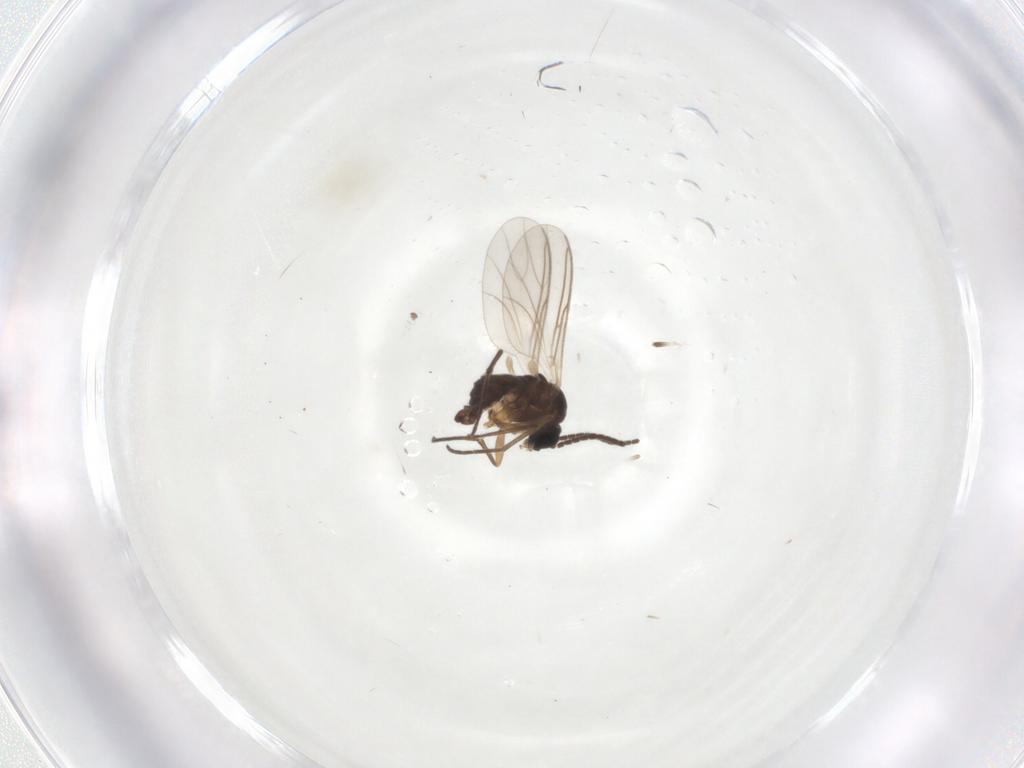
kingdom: Animalia
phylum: Arthropoda
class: Insecta
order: Diptera
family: Sciaridae
